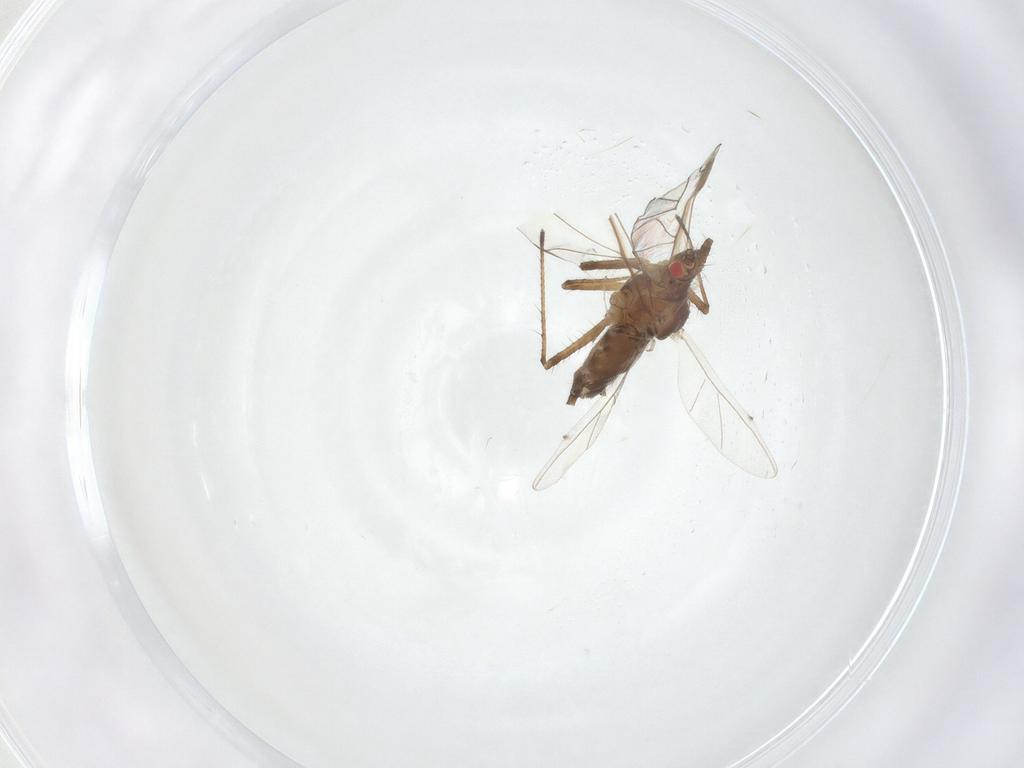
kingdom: Animalia
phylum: Arthropoda
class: Insecta
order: Hemiptera
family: Aphididae
